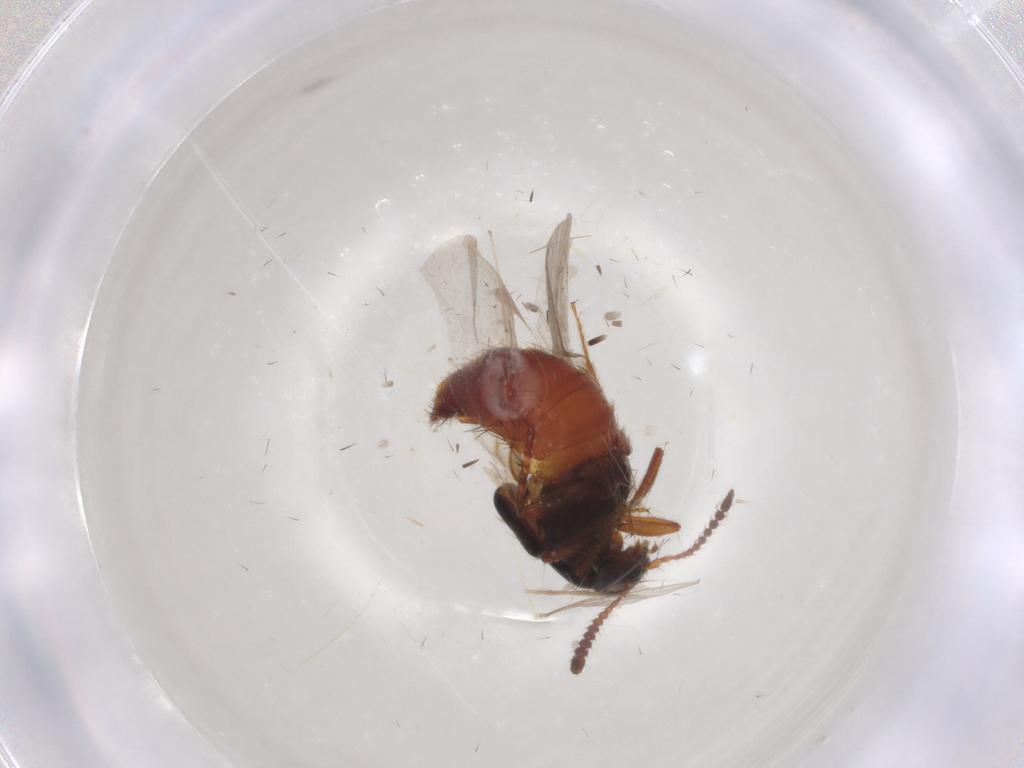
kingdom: Animalia
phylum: Arthropoda
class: Insecta
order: Coleoptera
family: Staphylinidae
